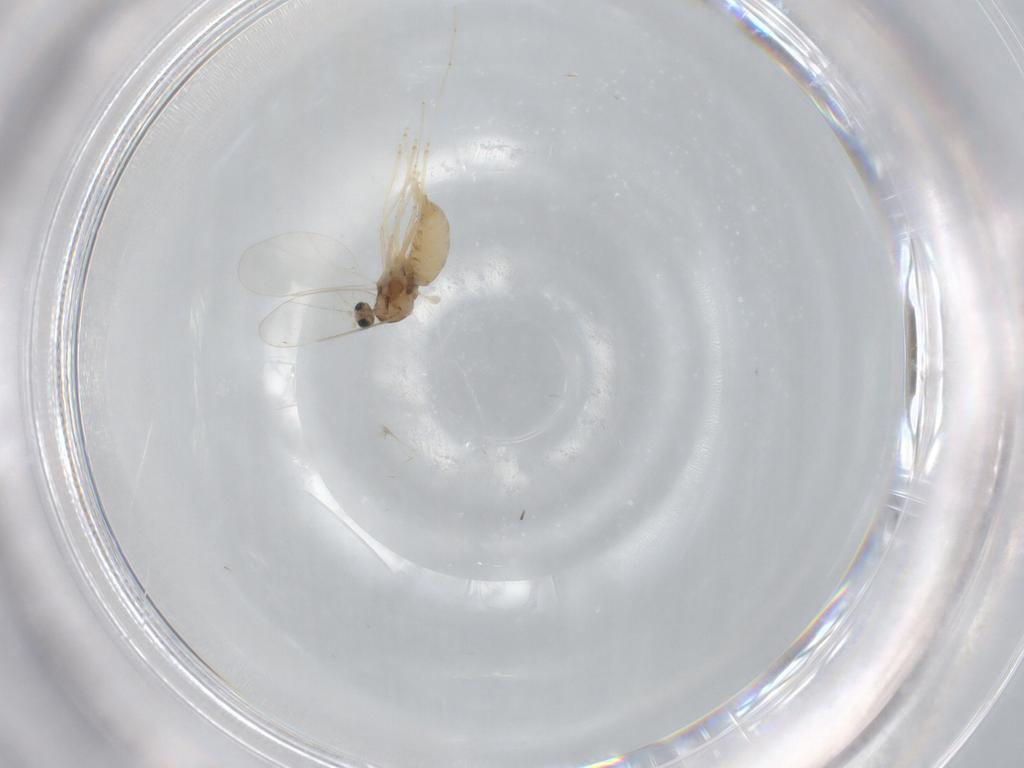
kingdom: Animalia
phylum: Arthropoda
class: Insecta
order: Diptera
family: Cecidomyiidae
